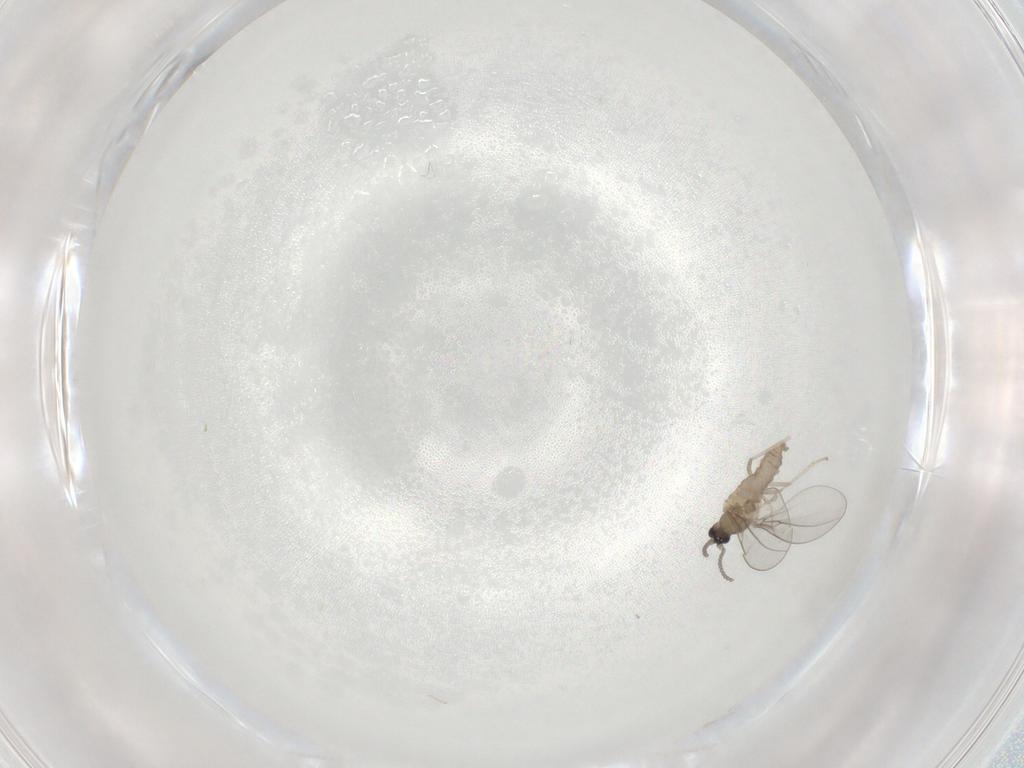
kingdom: Animalia
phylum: Arthropoda
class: Insecta
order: Diptera
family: Cecidomyiidae
